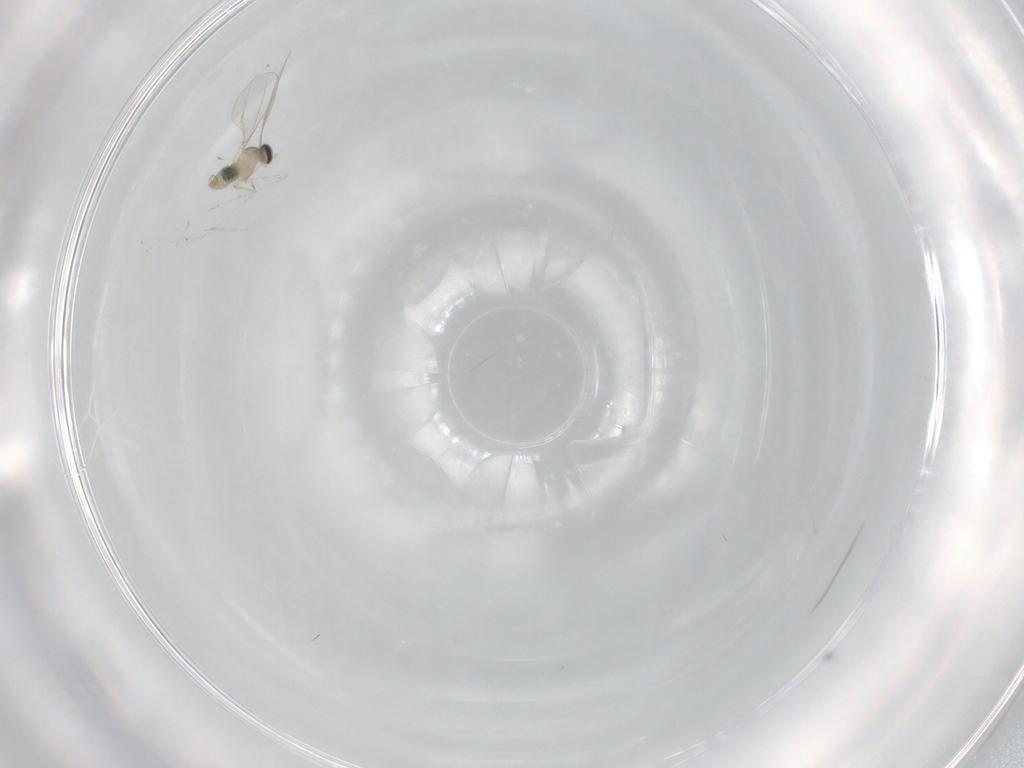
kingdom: Animalia
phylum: Arthropoda
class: Insecta
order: Diptera
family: Cecidomyiidae
